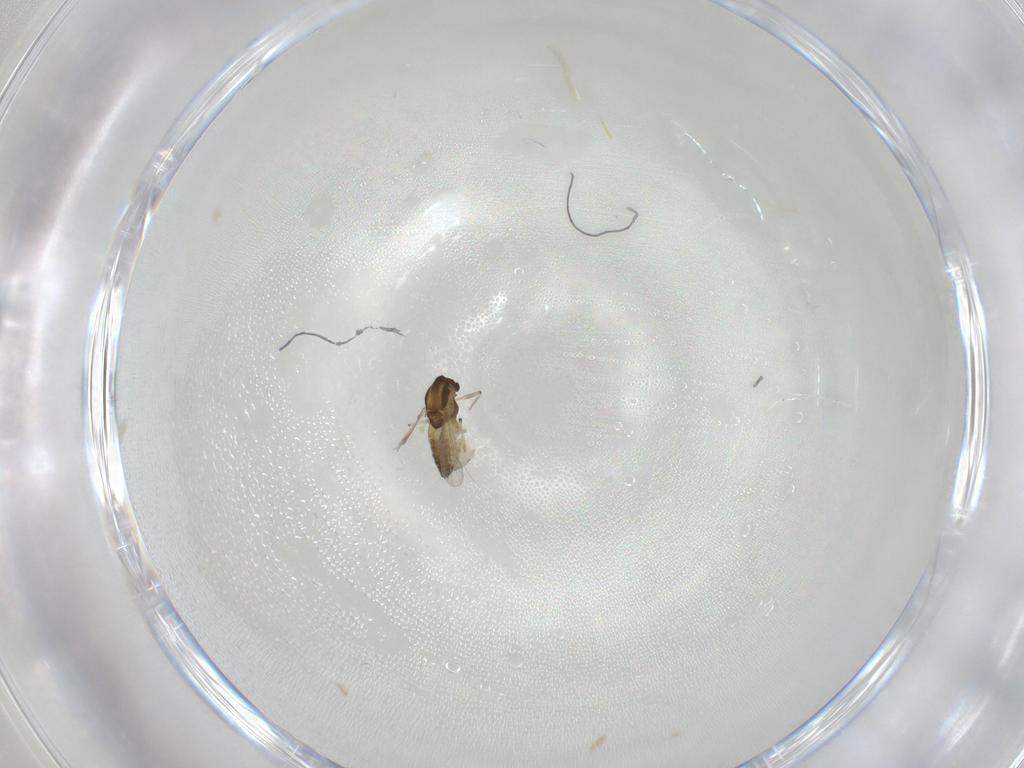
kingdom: Animalia
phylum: Arthropoda
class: Insecta
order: Diptera
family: Chironomidae
